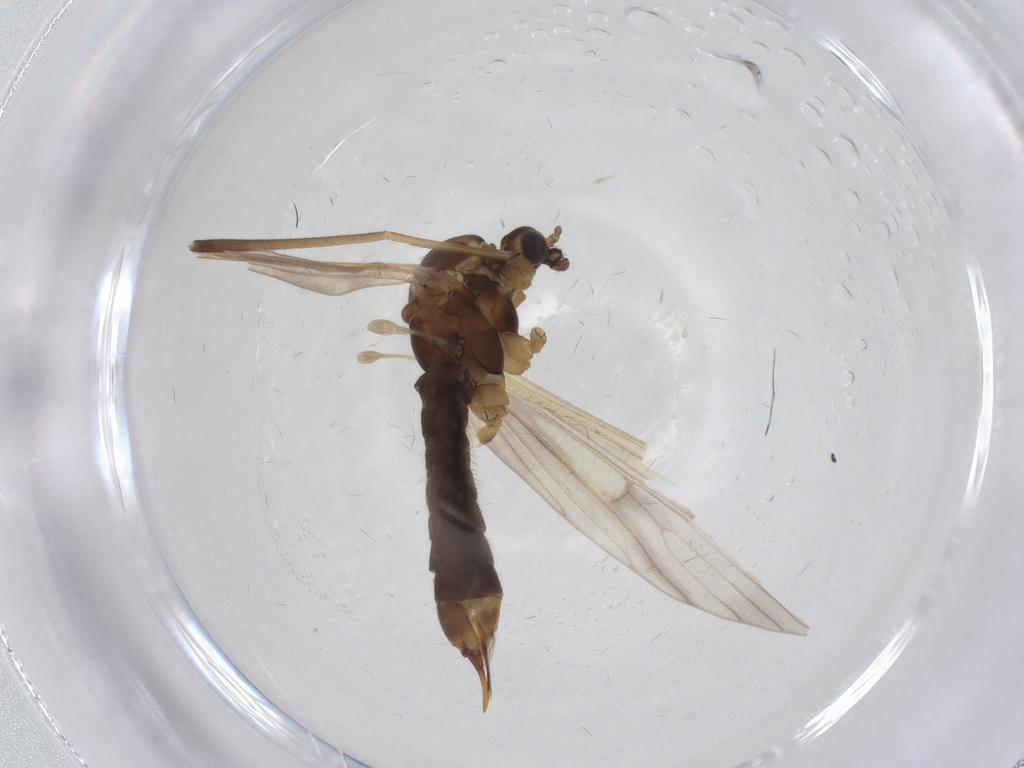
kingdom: Animalia
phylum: Arthropoda
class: Insecta
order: Diptera
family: Limoniidae
